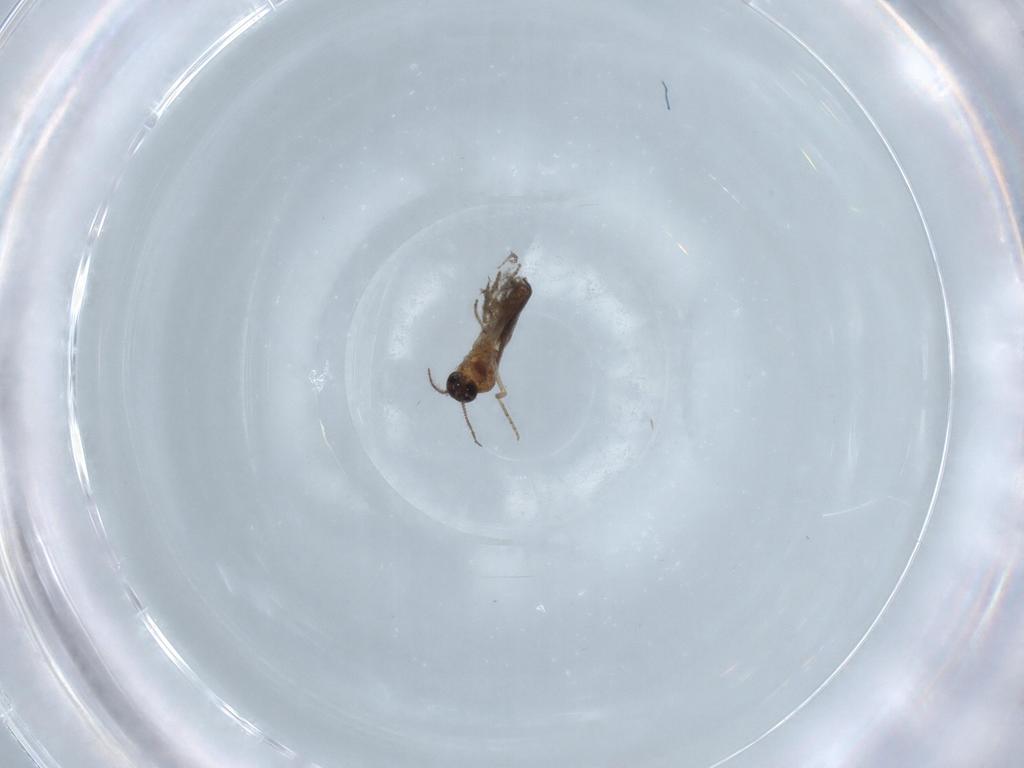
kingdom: Animalia
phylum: Arthropoda
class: Insecta
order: Diptera
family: Ceratopogonidae
